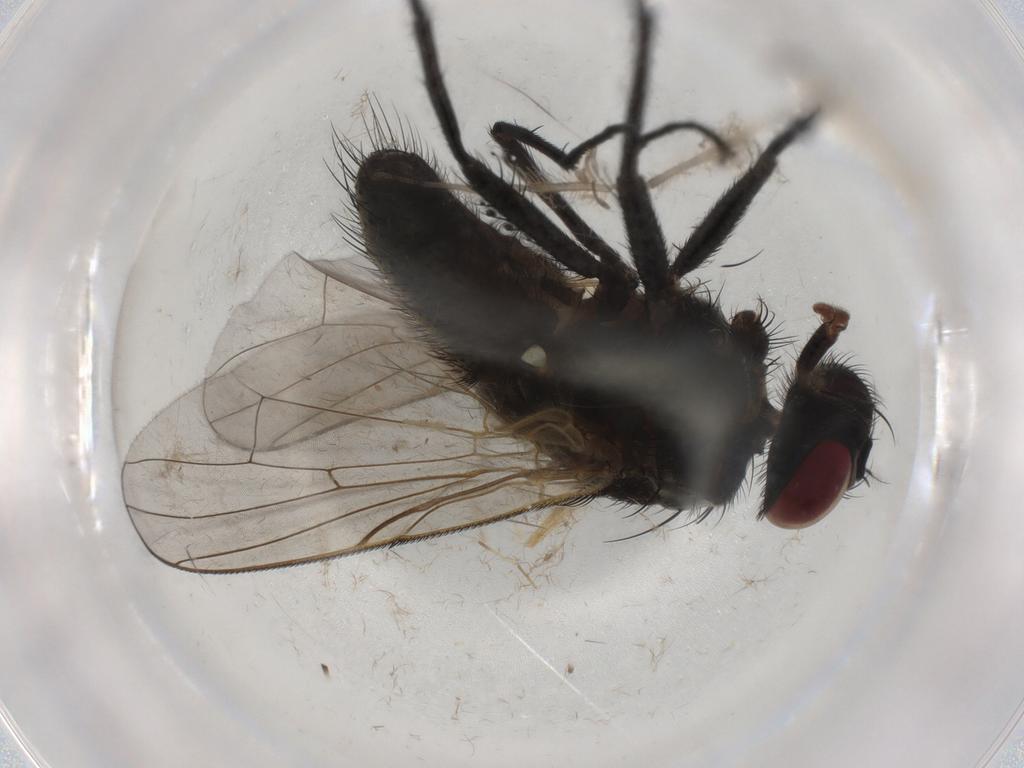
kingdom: Animalia
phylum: Arthropoda
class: Insecta
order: Diptera
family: Muscidae
